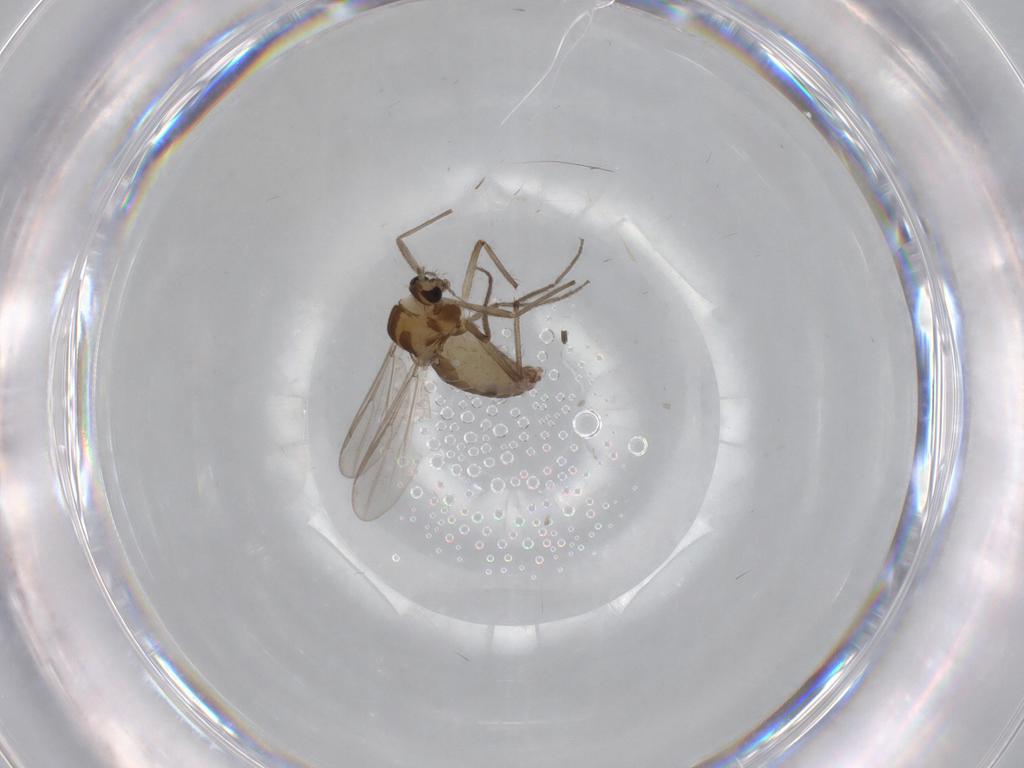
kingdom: Animalia
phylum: Arthropoda
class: Insecta
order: Diptera
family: Chironomidae
